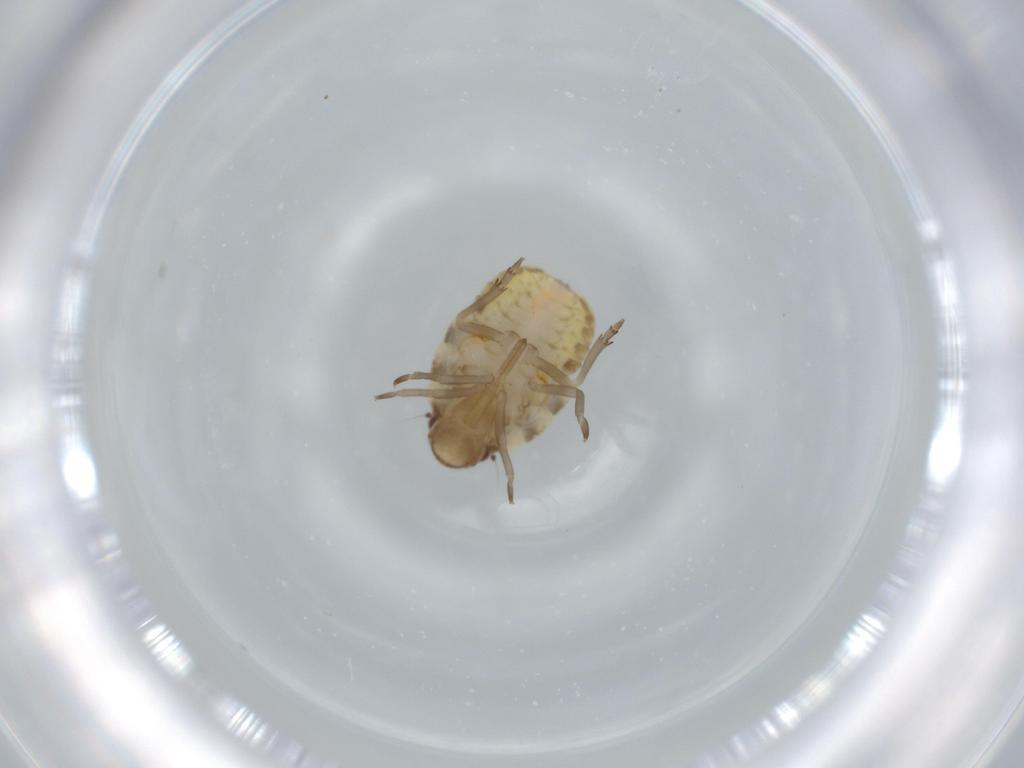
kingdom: Animalia
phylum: Arthropoda
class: Insecta
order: Hemiptera
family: Flatidae
